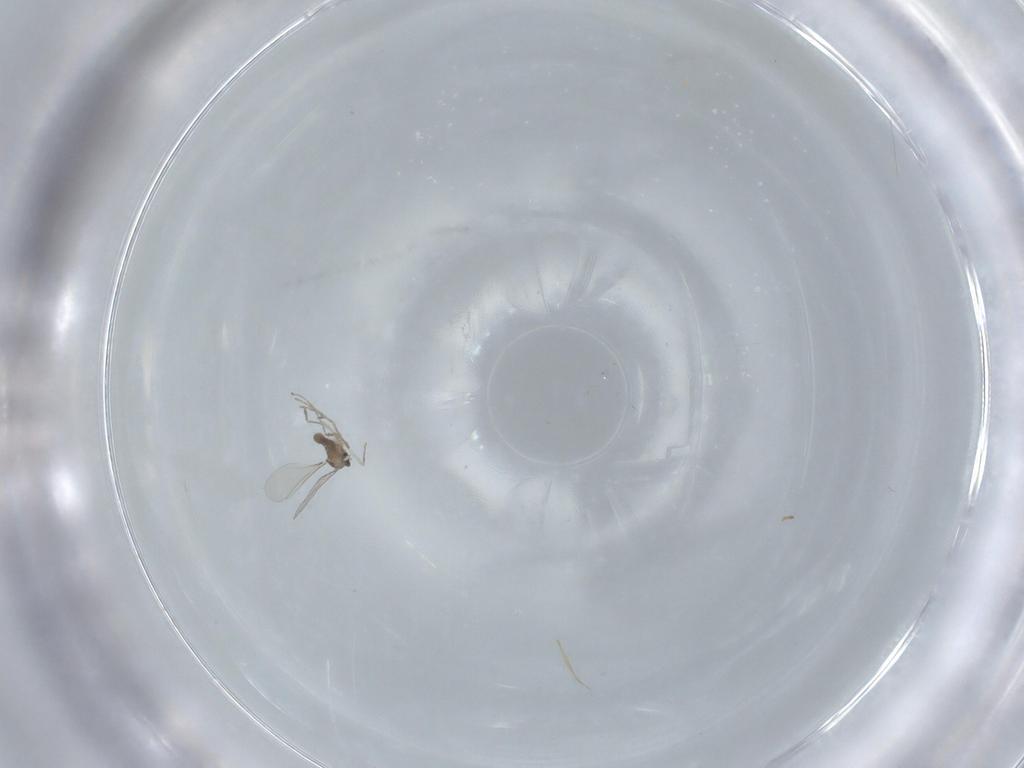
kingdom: Animalia
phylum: Arthropoda
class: Insecta
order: Diptera
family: Cecidomyiidae
